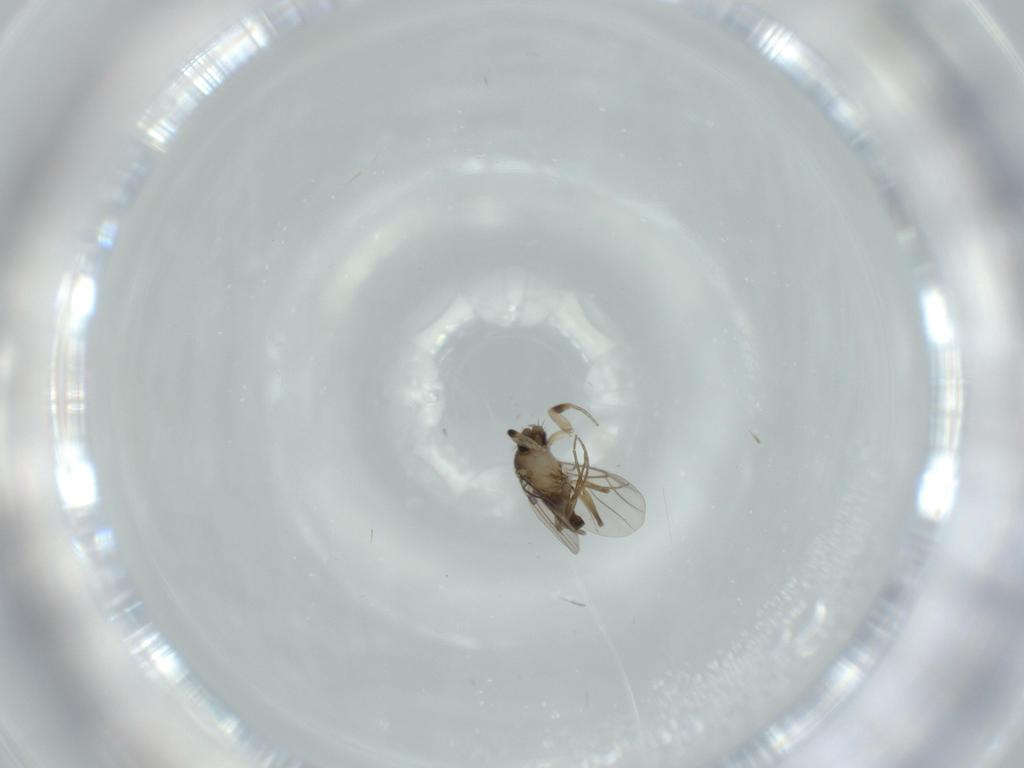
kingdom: Animalia
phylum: Arthropoda
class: Insecta
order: Diptera
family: Ceratopogonidae
